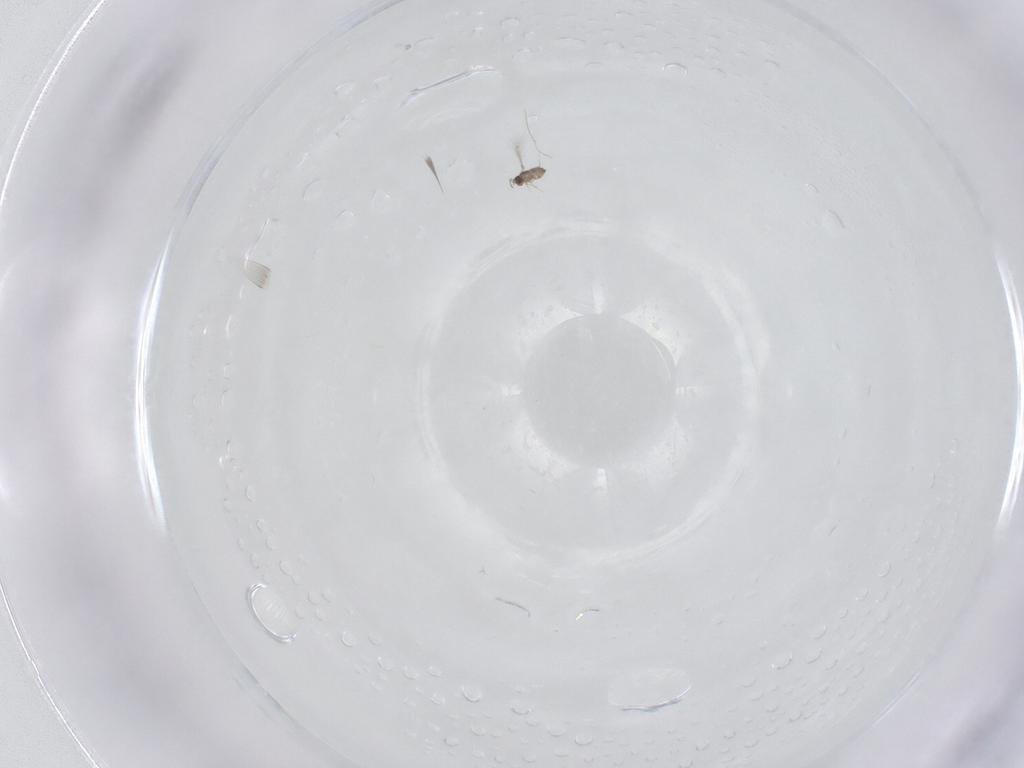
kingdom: Animalia
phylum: Arthropoda
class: Insecta
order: Hymenoptera
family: Mymaridae
